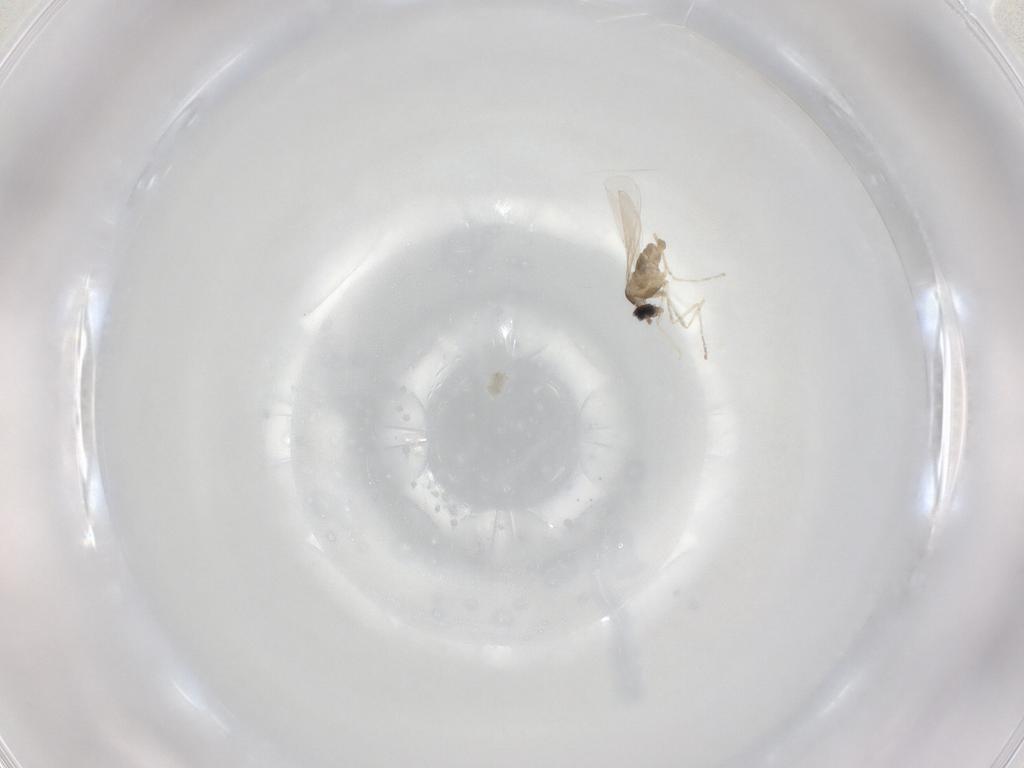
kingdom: Animalia
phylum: Arthropoda
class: Insecta
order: Diptera
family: Cecidomyiidae
